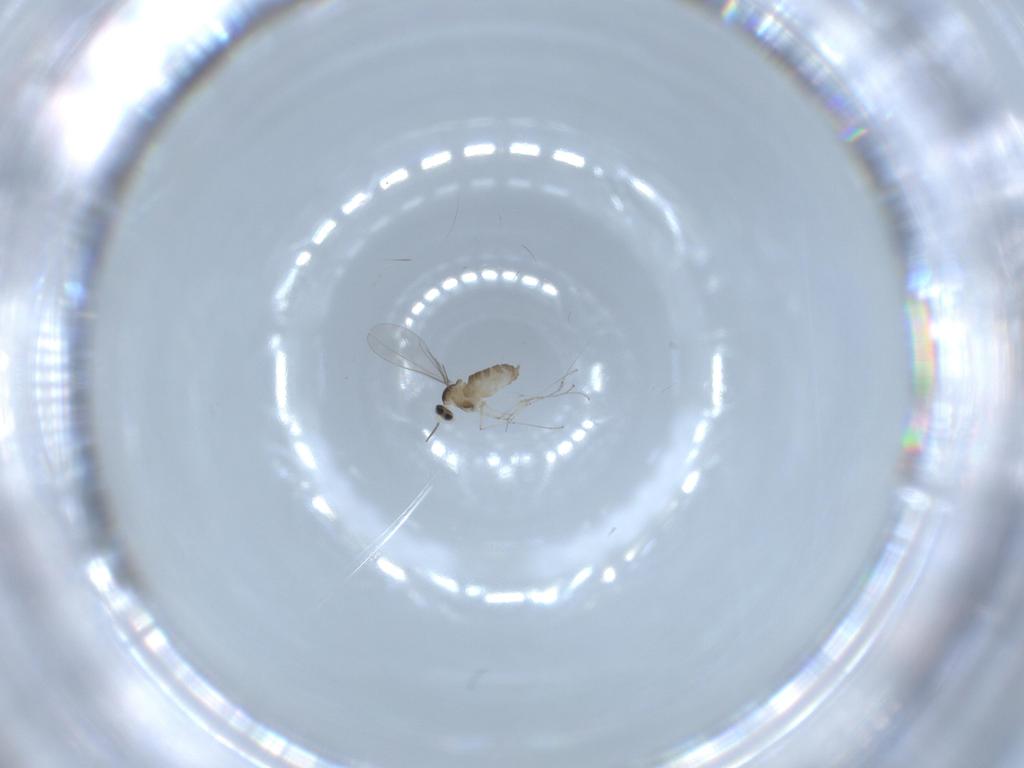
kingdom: Animalia
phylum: Arthropoda
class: Insecta
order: Diptera
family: Cecidomyiidae
